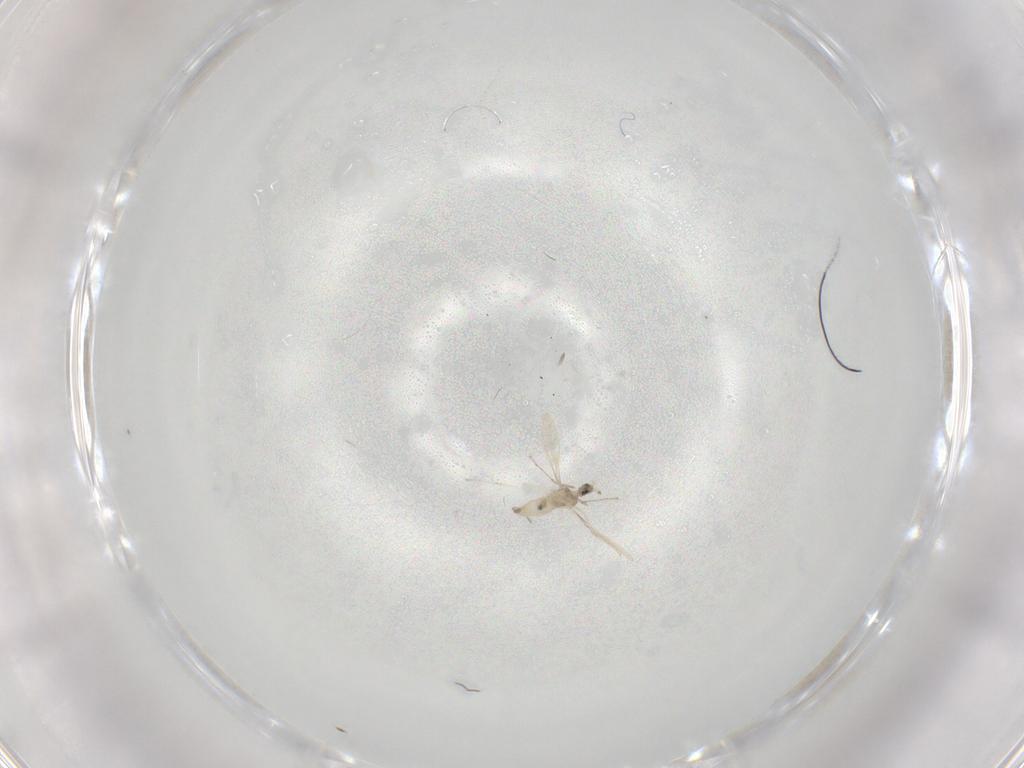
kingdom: Animalia
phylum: Arthropoda
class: Insecta
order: Diptera
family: Cecidomyiidae
